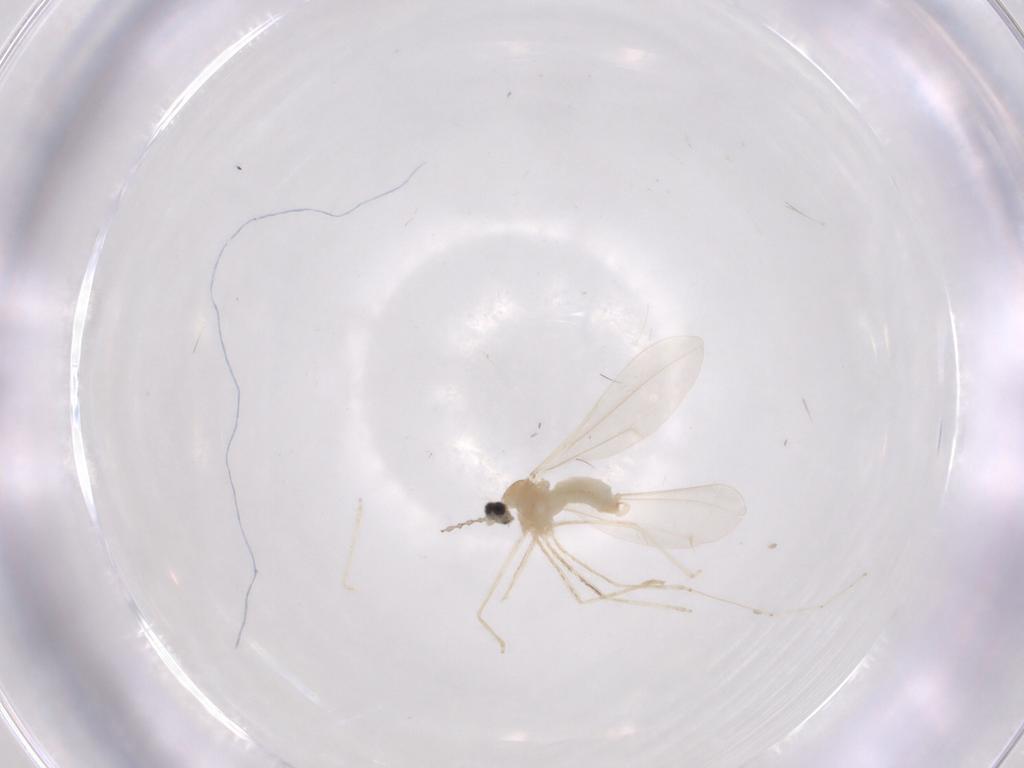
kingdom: Animalia
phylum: Arthropoda
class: Insecta
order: Diptera
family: Cecidomyiidae
